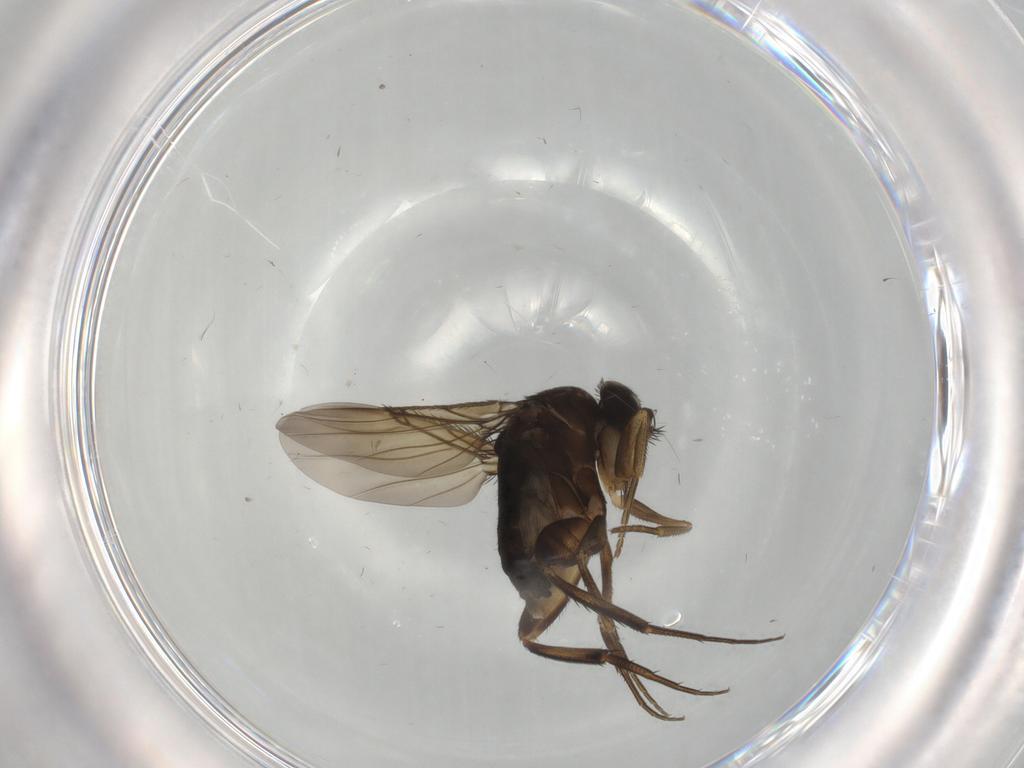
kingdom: Animalia
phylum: Arthropoda
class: Insecta
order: Diptera
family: Phoridae
